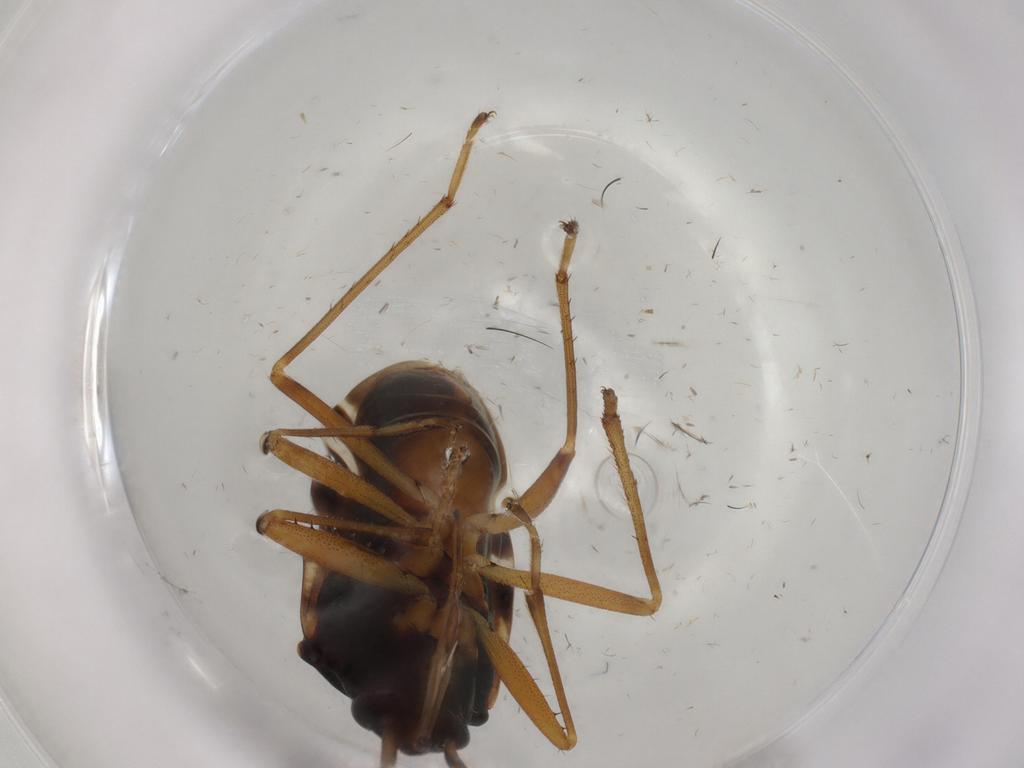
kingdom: Animalia
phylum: Arthropoda
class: Insecta
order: Hemiptera
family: Rhyparochromidae
